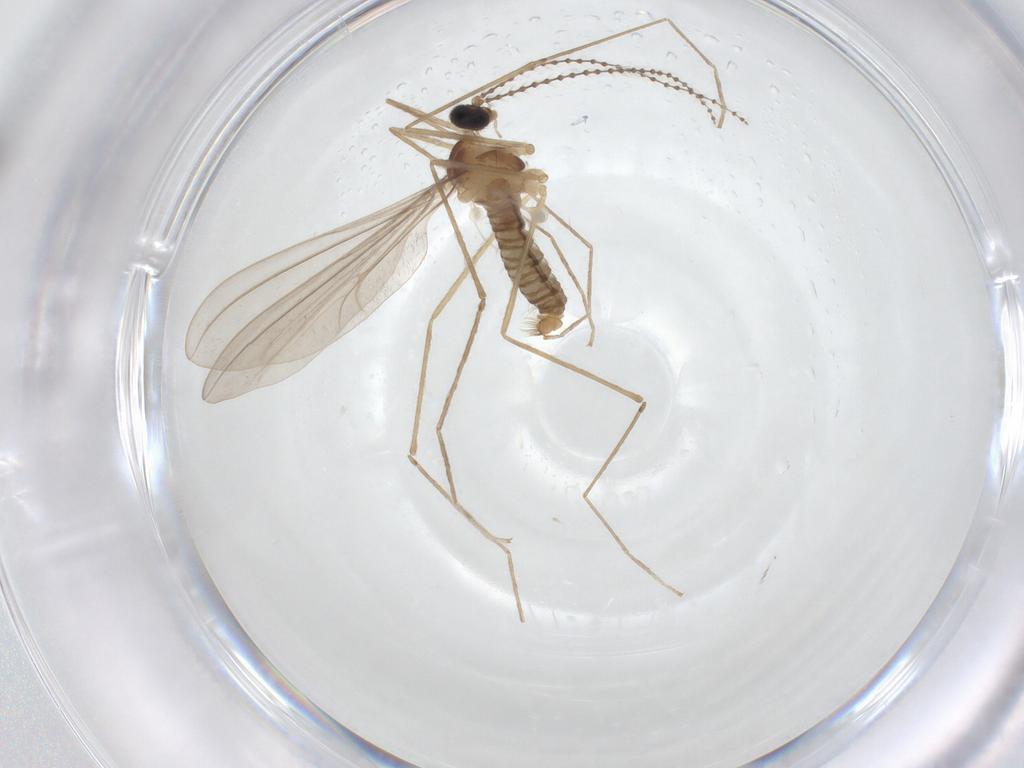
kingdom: Animalia
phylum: Arthropoda
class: Insecta
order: Diptera
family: Cecidomyiidae
